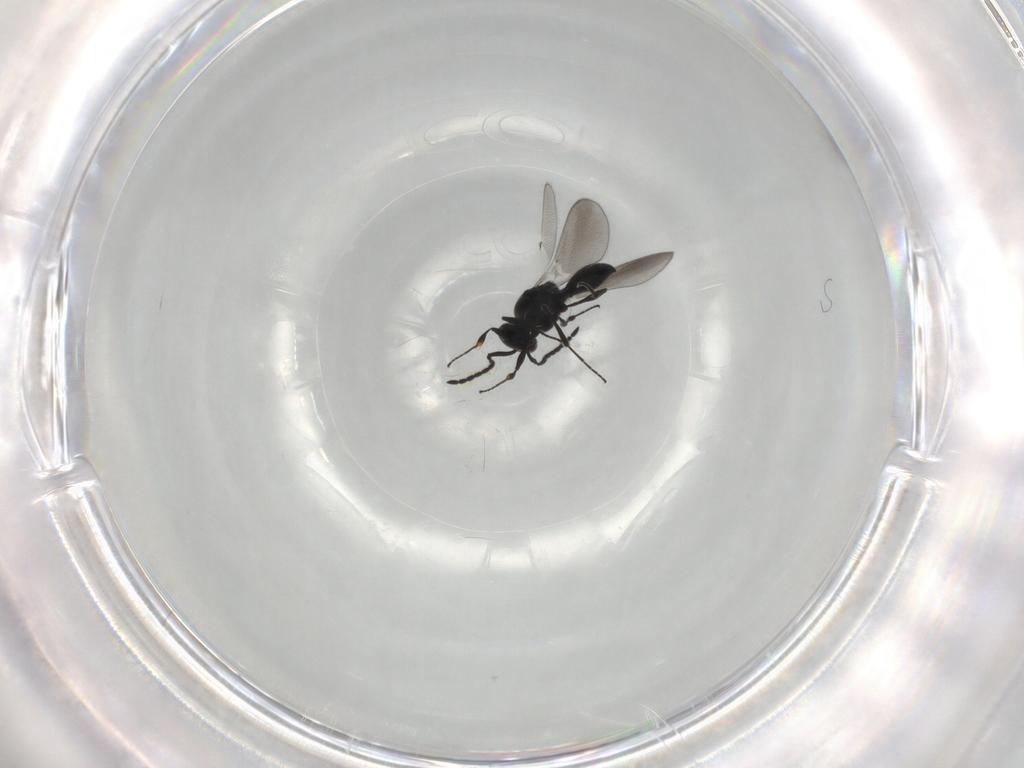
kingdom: Animalia
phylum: Arthropoda
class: Insecta
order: Diptera
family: Mythicomyiidae
